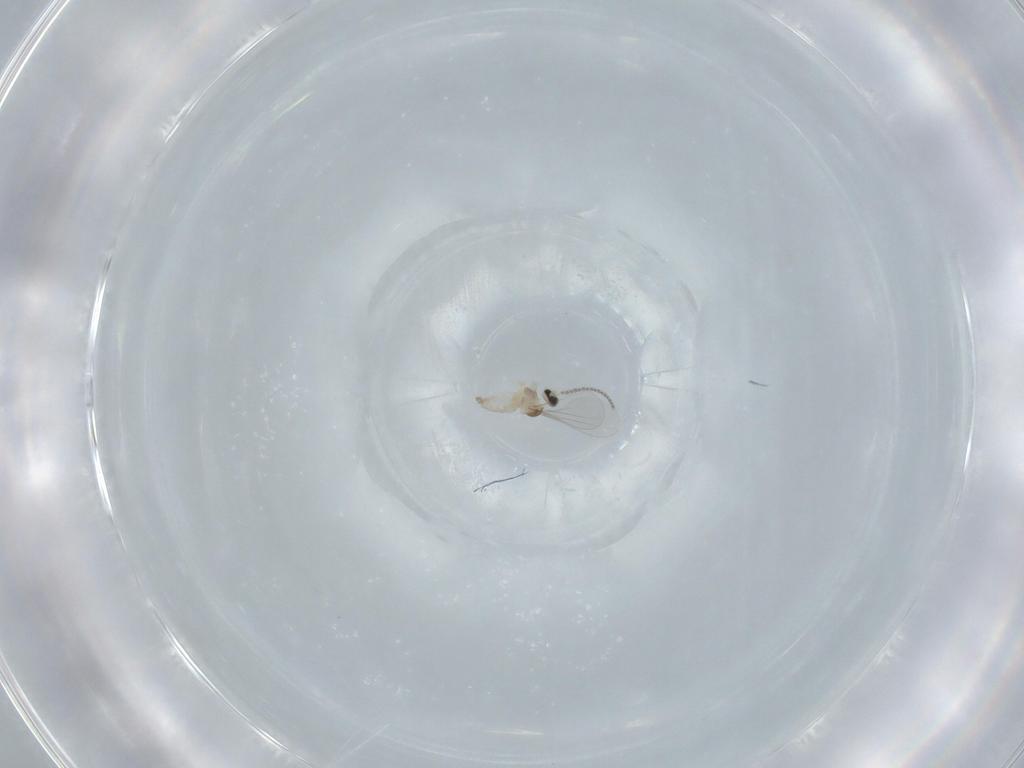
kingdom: Animalia
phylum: Arthropoda
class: Insecta
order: Diptera
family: Cecidomyiidae
